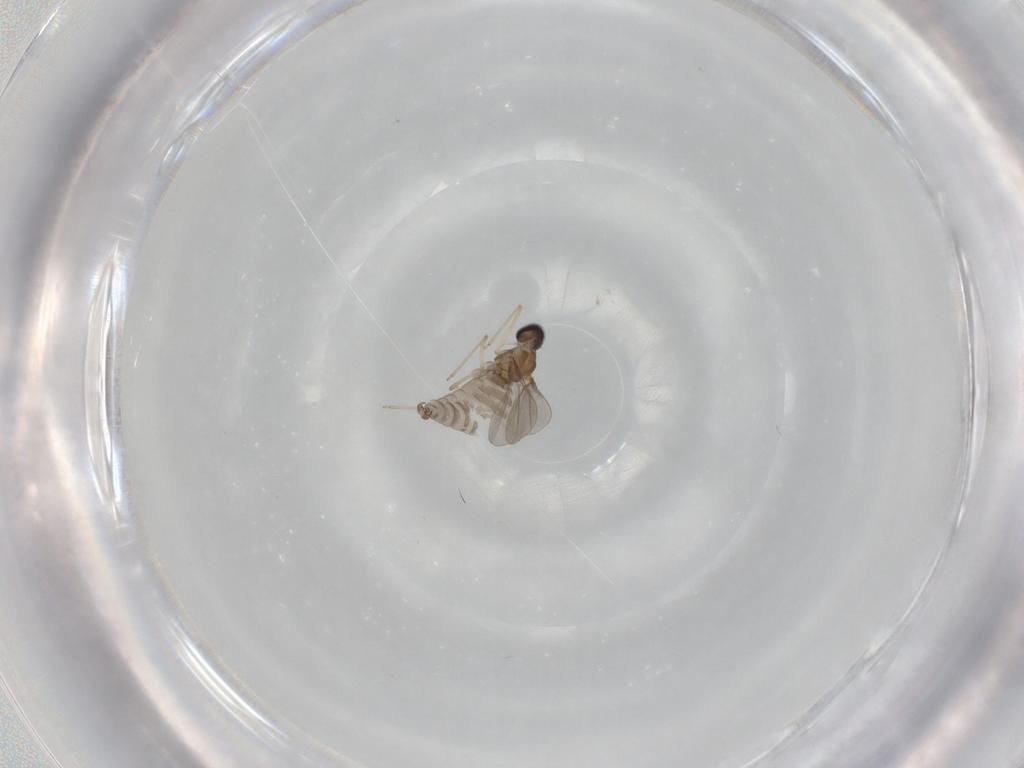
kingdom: Animalia
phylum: Arthropoda
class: Insecta
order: Diptera
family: Cecidomyiidae
